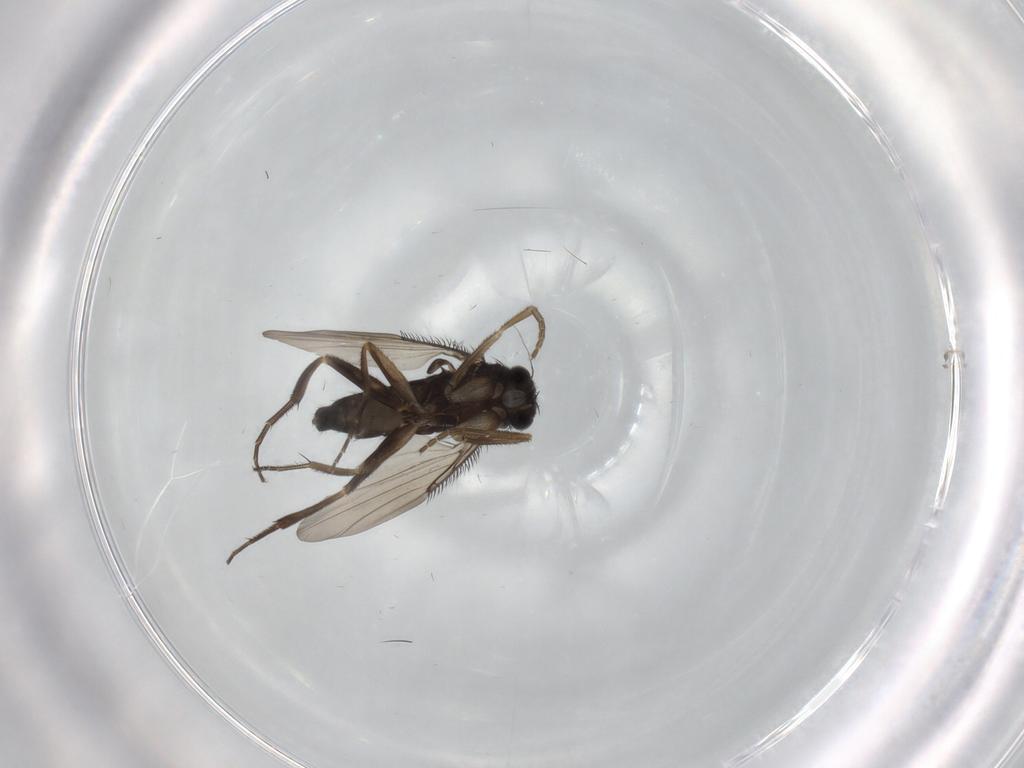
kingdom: Animalia
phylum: Arthropoda
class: Insecta
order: Diptera
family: Phoridae
